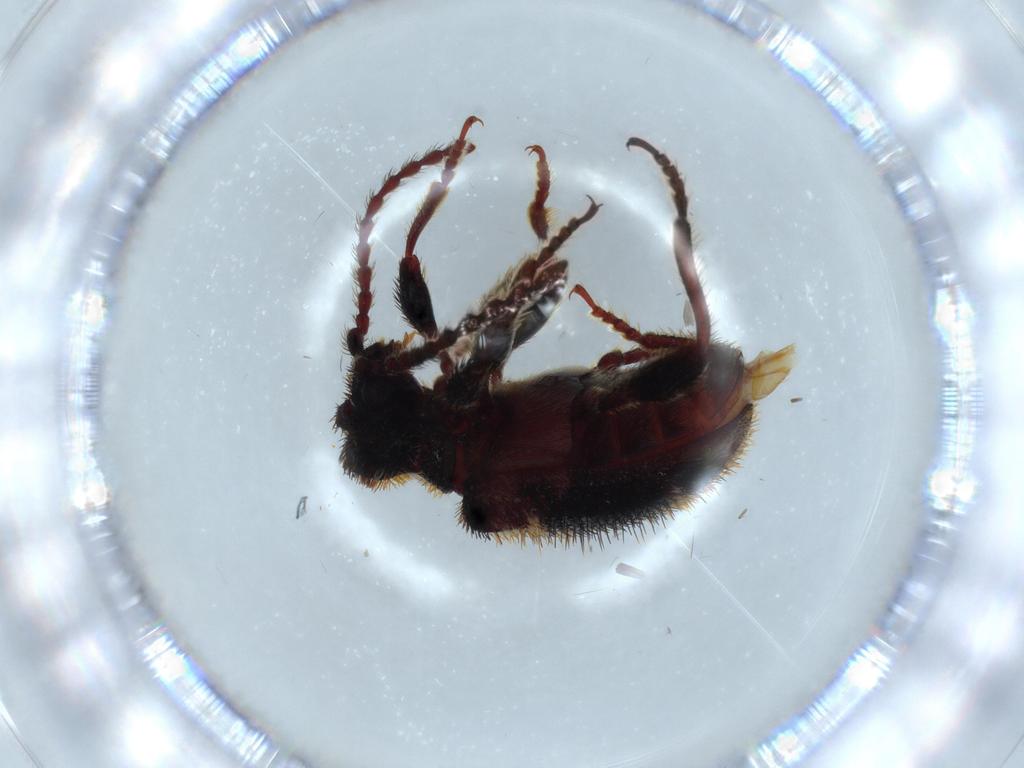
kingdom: Animalia
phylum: Arthropoda
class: Insecta
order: Coleoptera
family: Ptinidae
